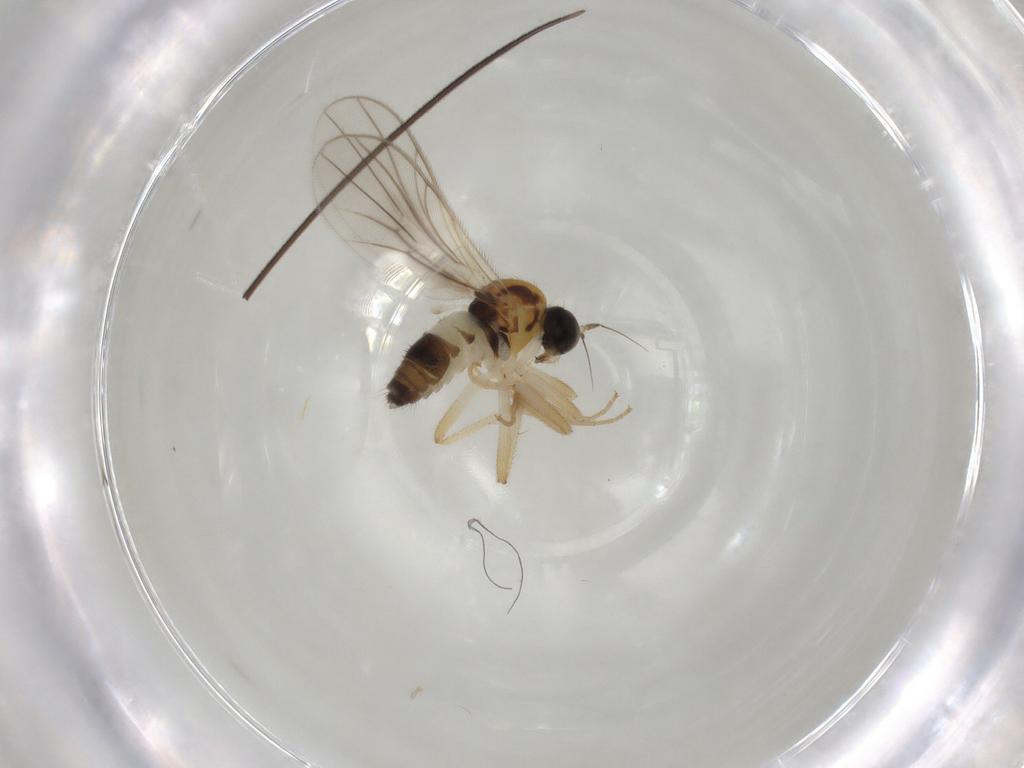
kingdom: Animalia
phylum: Arthropoda
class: Insecta
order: Diptera
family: Hybotidae
